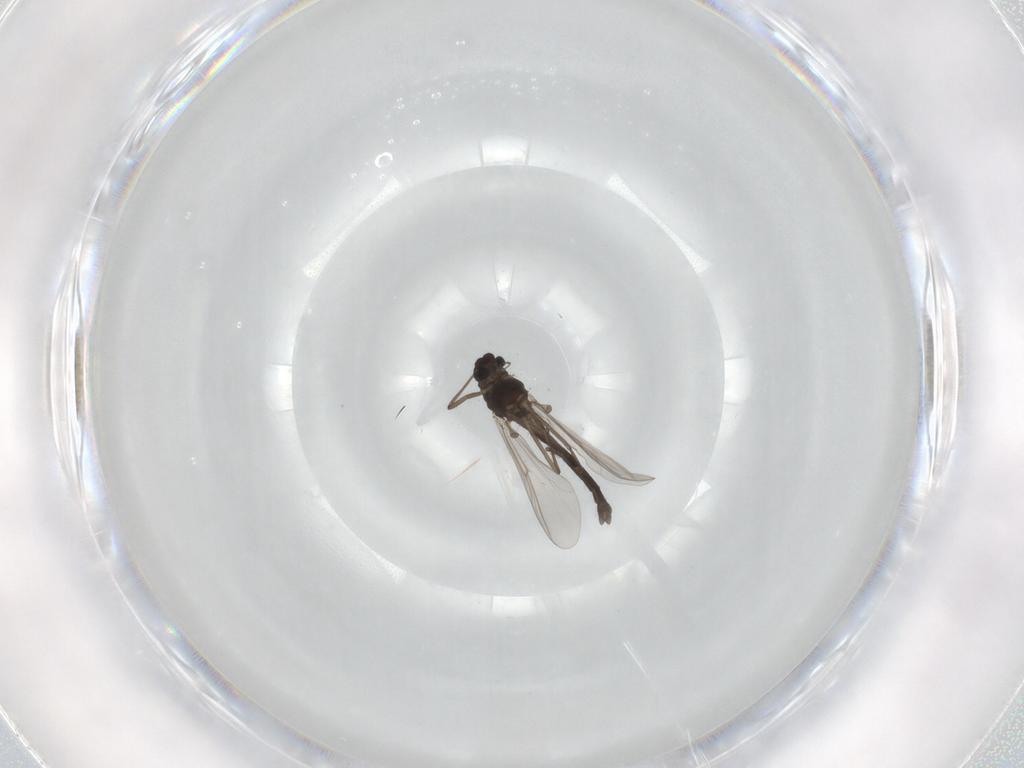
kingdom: Animalia
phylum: Arthropoda
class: Insecta
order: Diptera
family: Chironomidae
